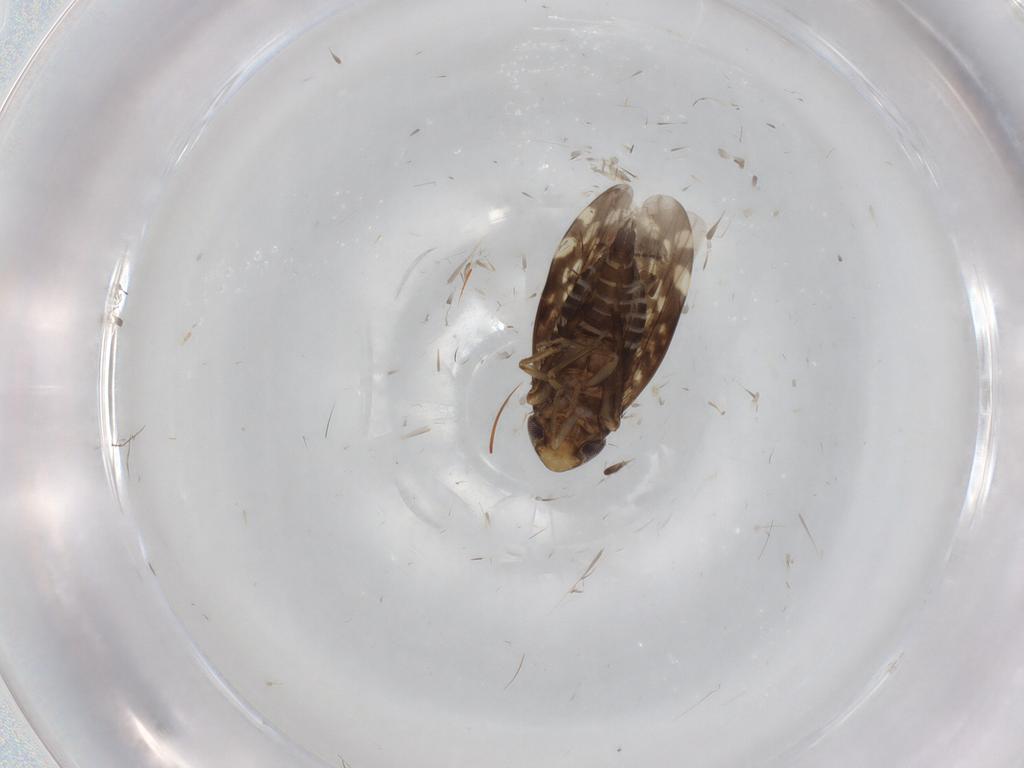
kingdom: Animalia
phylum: Arthropoda
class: Insecta
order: Hemiptera
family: Cicadellidae
